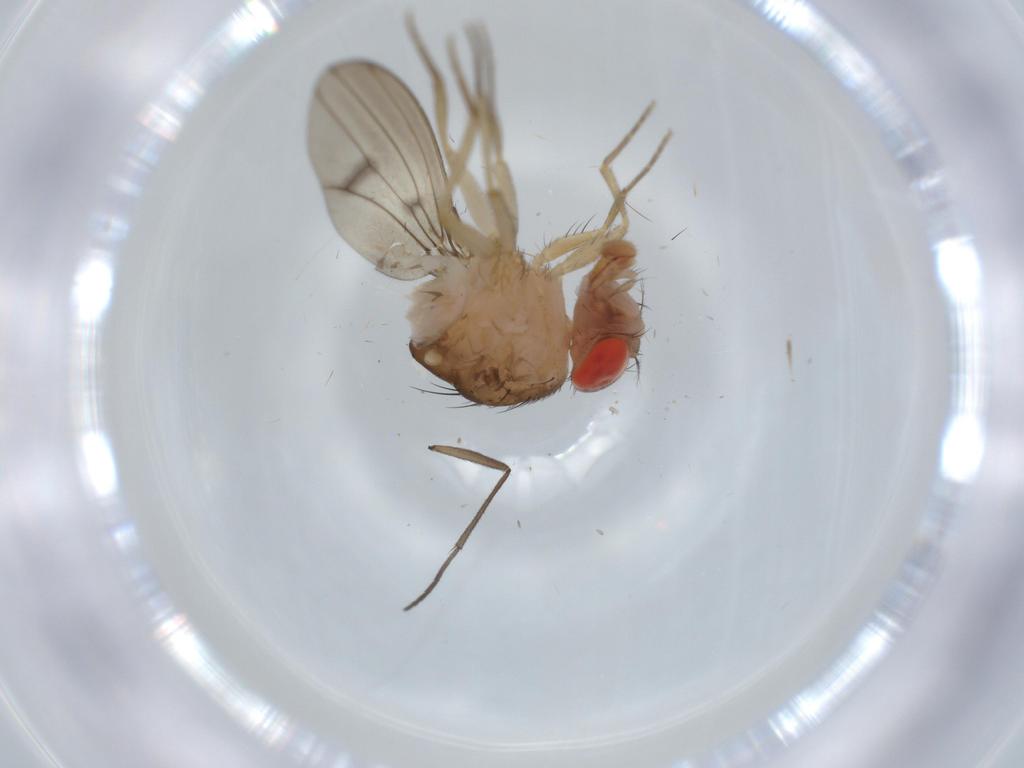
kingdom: Animalia
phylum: Arthropoda
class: Insecta
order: Diptera
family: Drosophilidae
